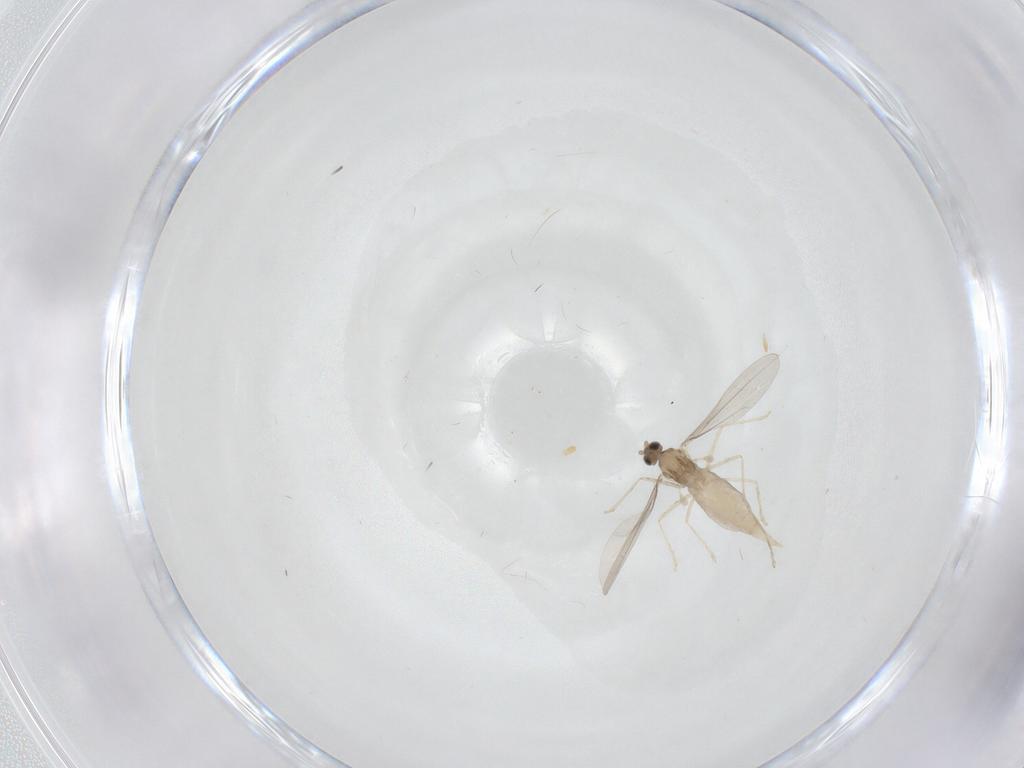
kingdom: Animalia
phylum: Arthropoda
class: Insecta
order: Diptera
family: Cecidomyiidae
